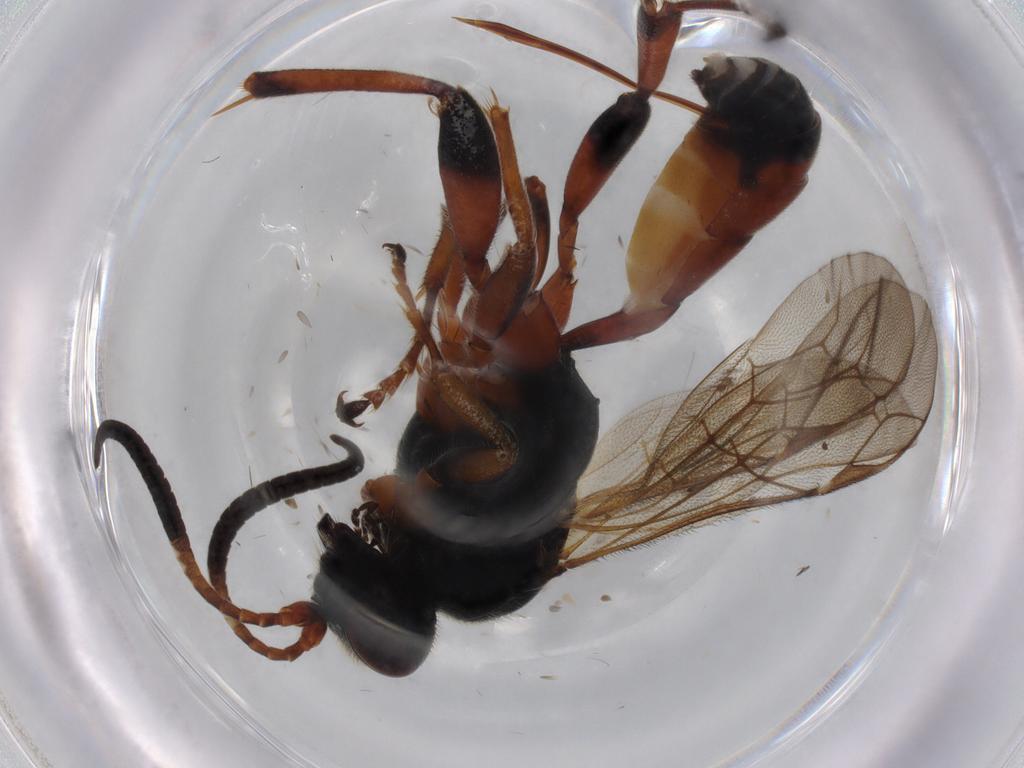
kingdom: Animalia
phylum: Arthropoda
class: Insecta
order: Hymenoptera
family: Ichneumonidae
